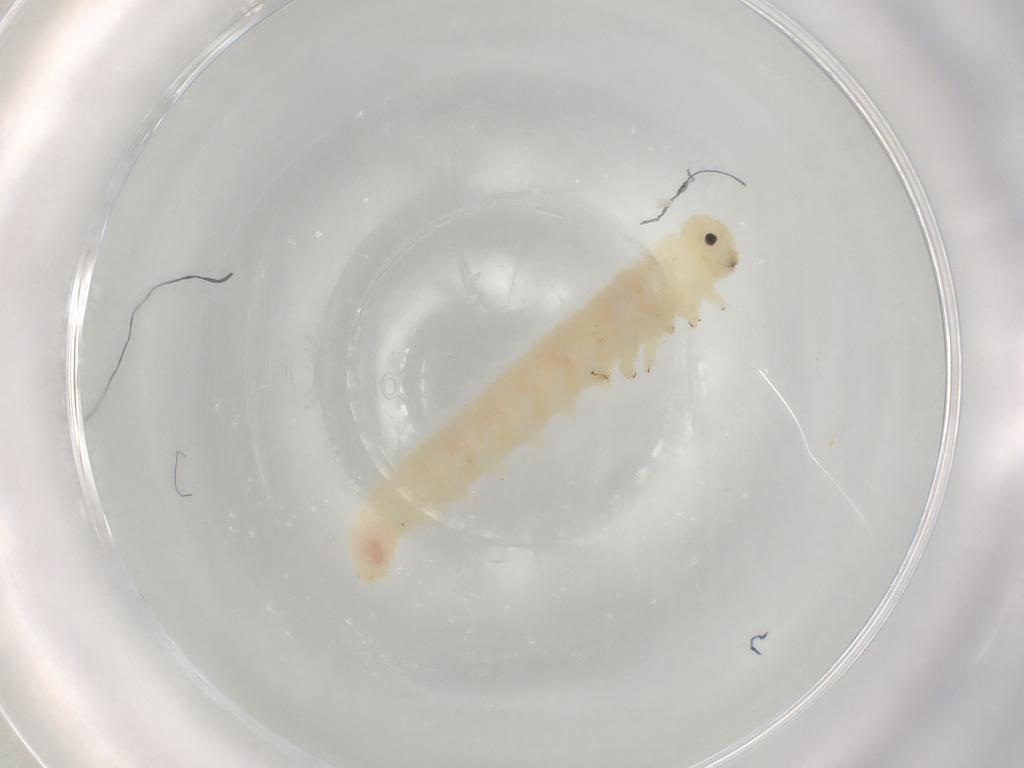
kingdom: Animalia
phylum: Arthropoda
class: Insecta
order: Hymenoptera
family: Tenthredinidae
